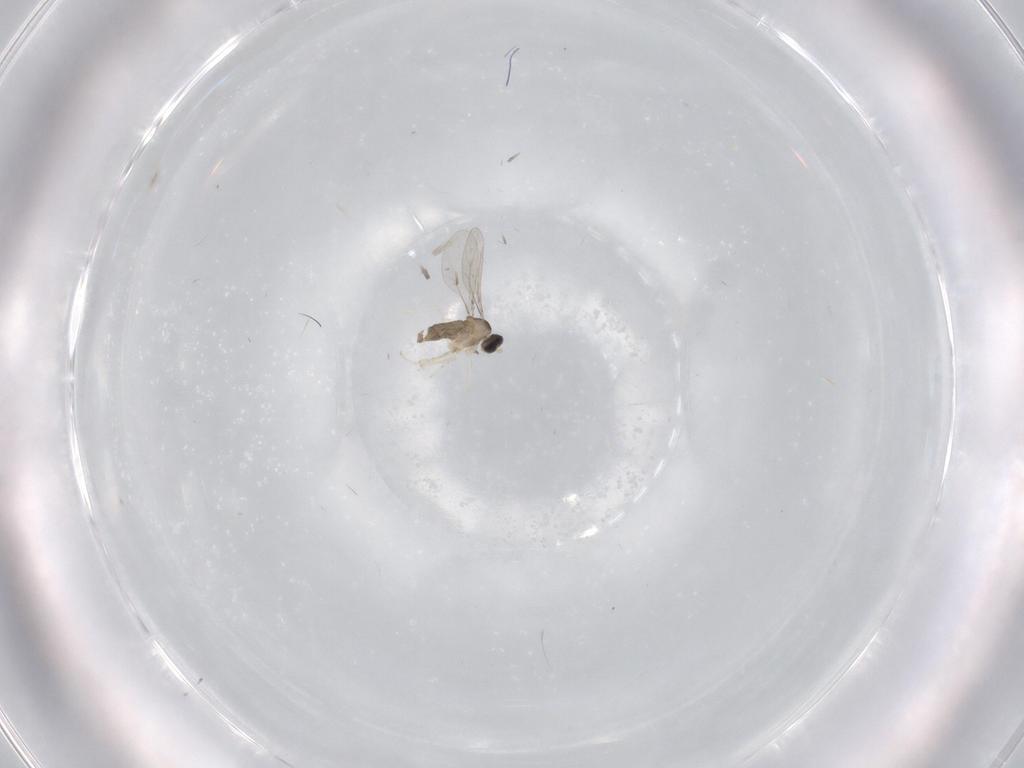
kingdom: Animalia
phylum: Arthropoda
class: Insecta
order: Diptera
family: Cecidomyiidae
